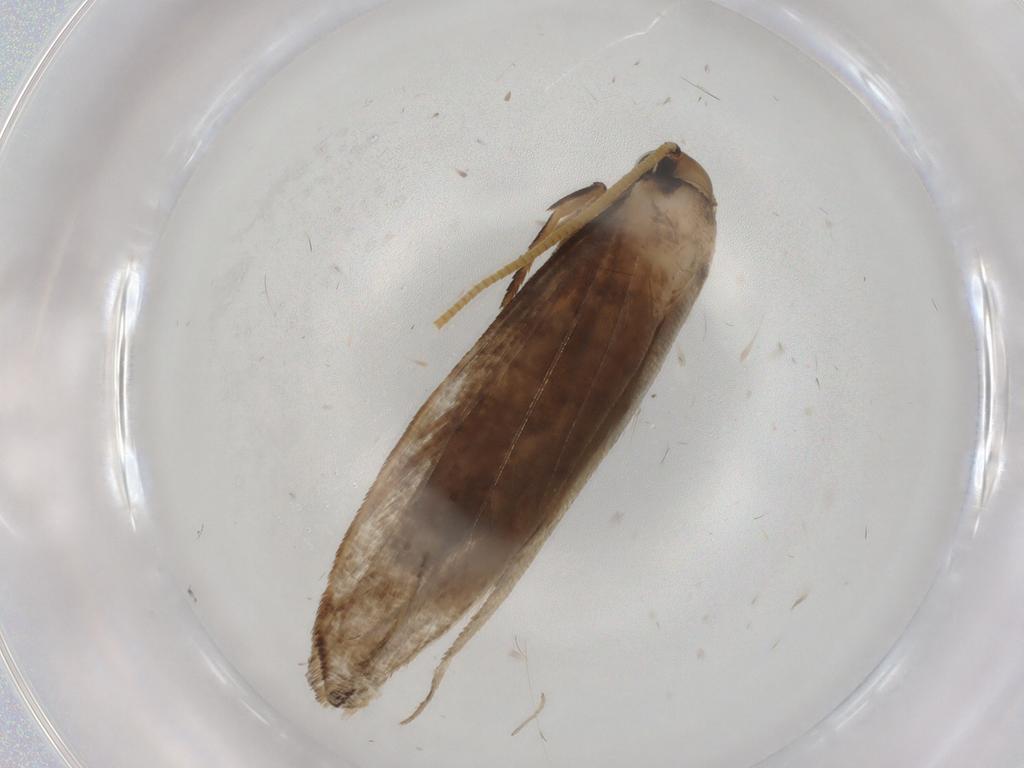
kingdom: Animalia
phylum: Arthropoda
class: Insecta
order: Lepidoptera
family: Tineidae
